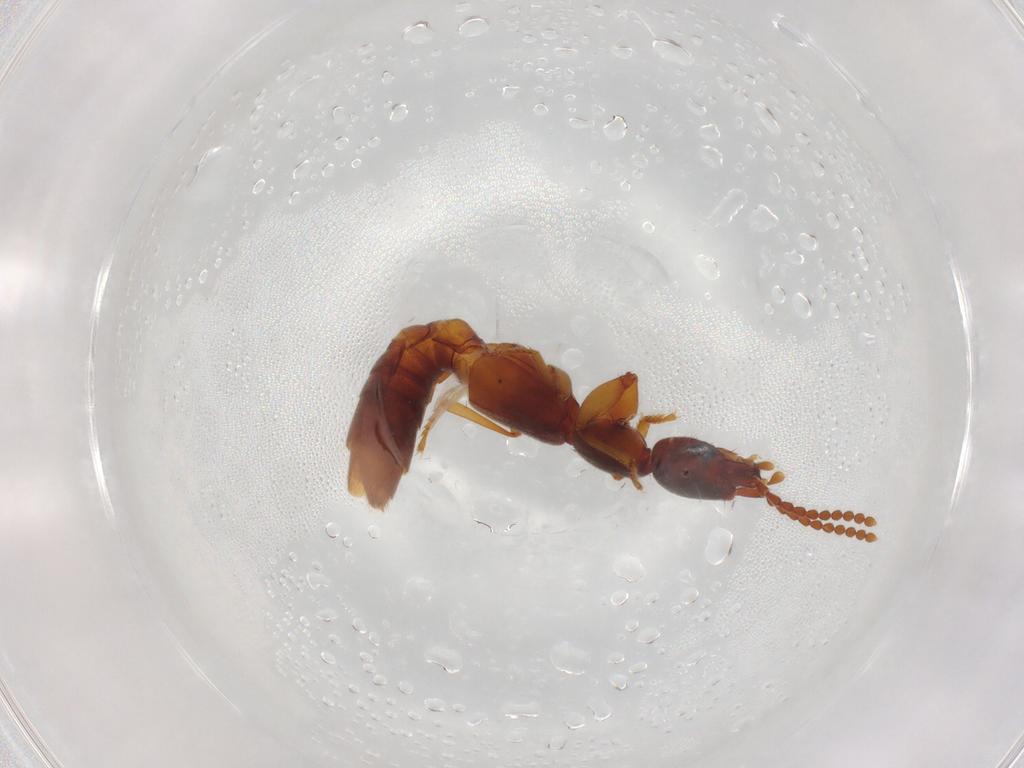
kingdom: Animalia
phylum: Arthropoda
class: Insecta
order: Coleoptera
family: Staphylinidae
